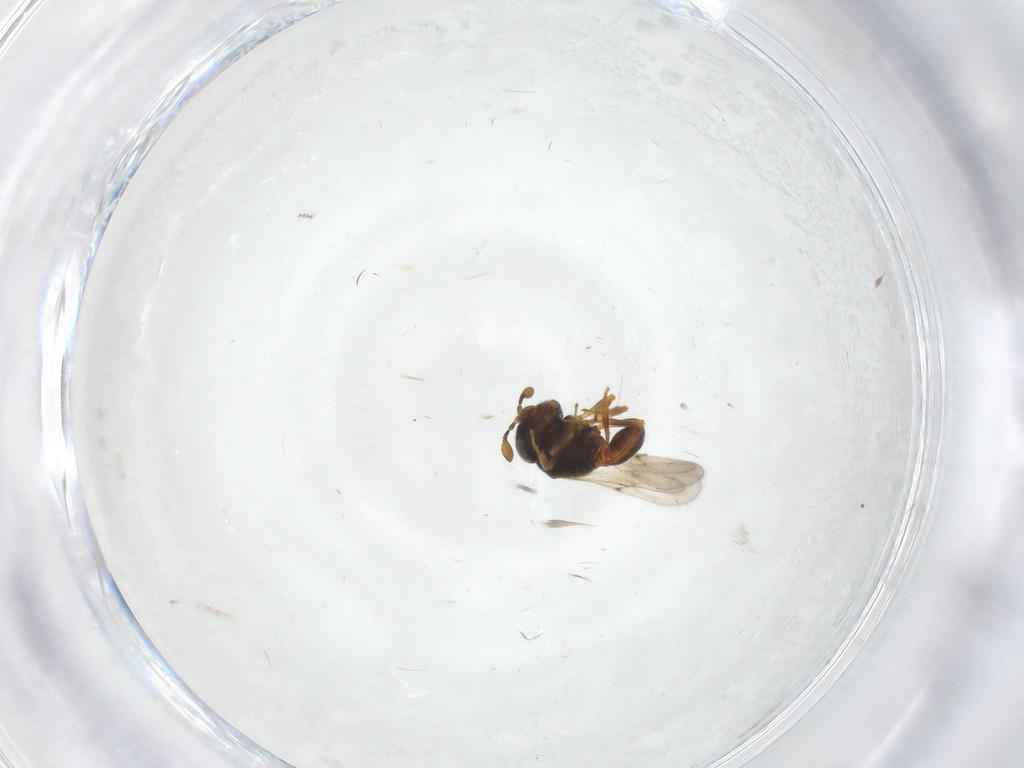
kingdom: Animalia
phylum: Arthropoda
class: Insecta
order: Hymenoptera
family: Scelionidae
